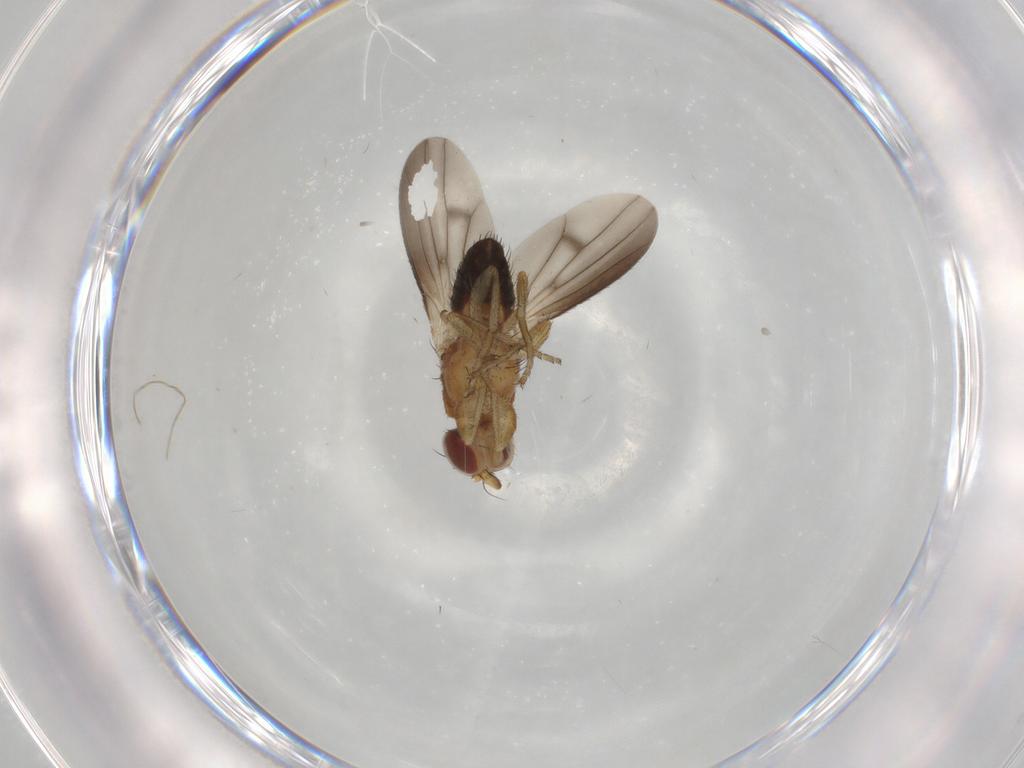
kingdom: Animalia
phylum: Arthropoda
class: Insecta
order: Diptera
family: Heleomyzidae
